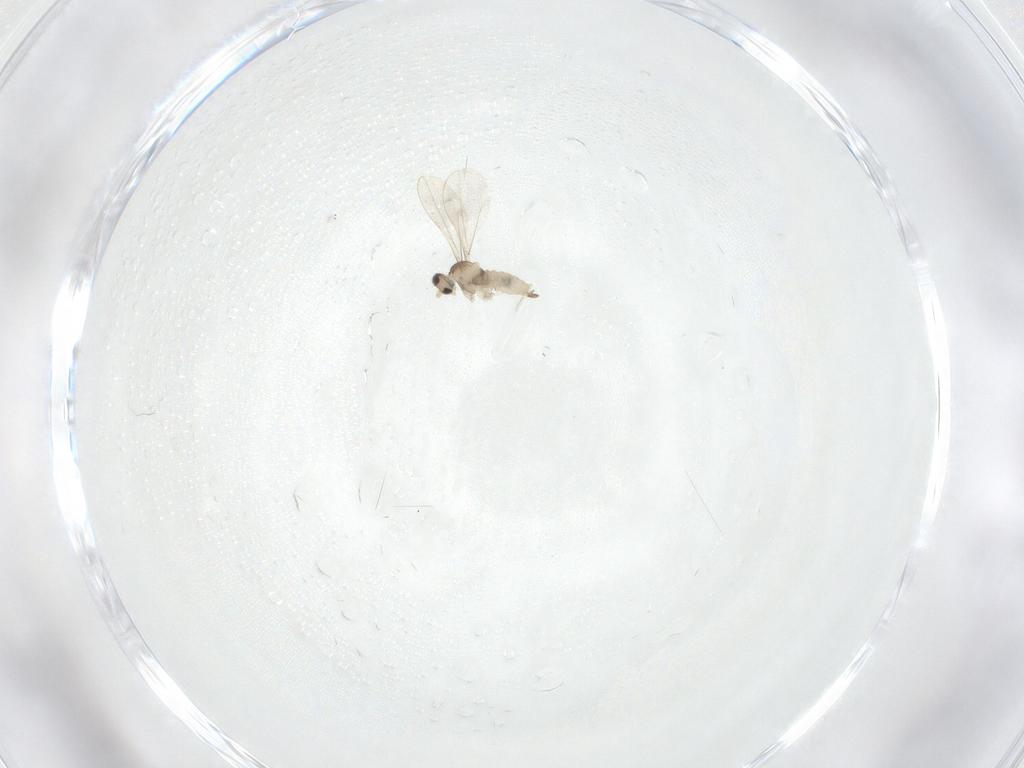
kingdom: Animalia
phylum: Arthropoda
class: Insecta
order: Diptera
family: Cecidomyiidae
